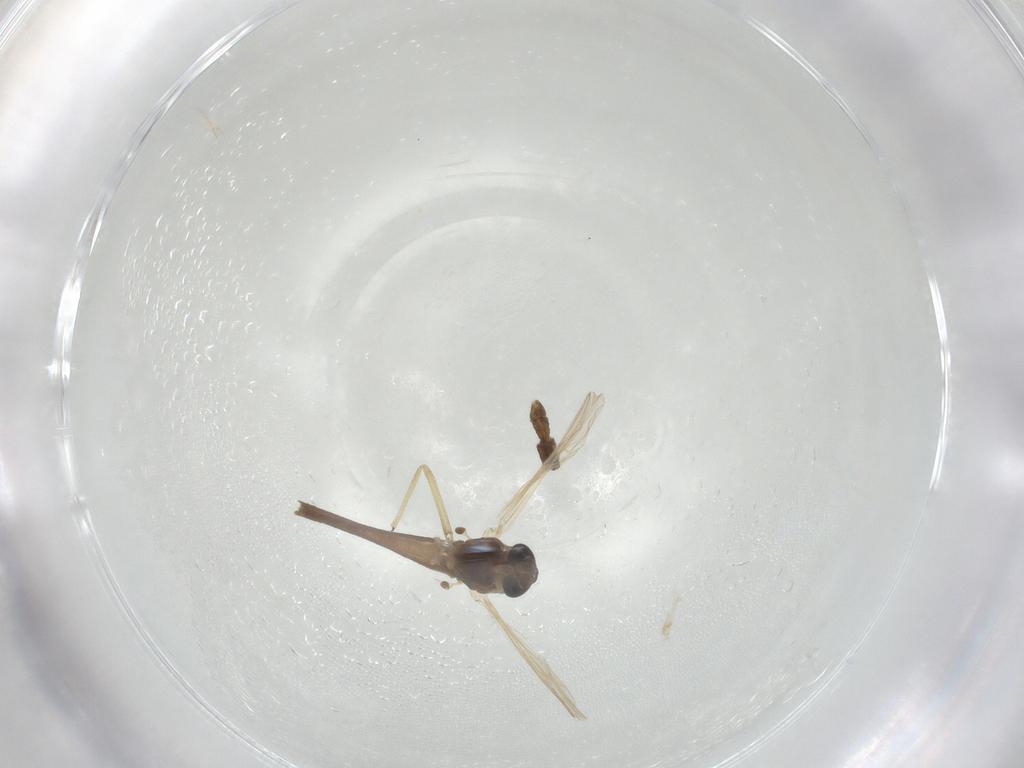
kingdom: Animalia
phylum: Arthropoda
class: Insecta
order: Diptera
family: Chironomidae
